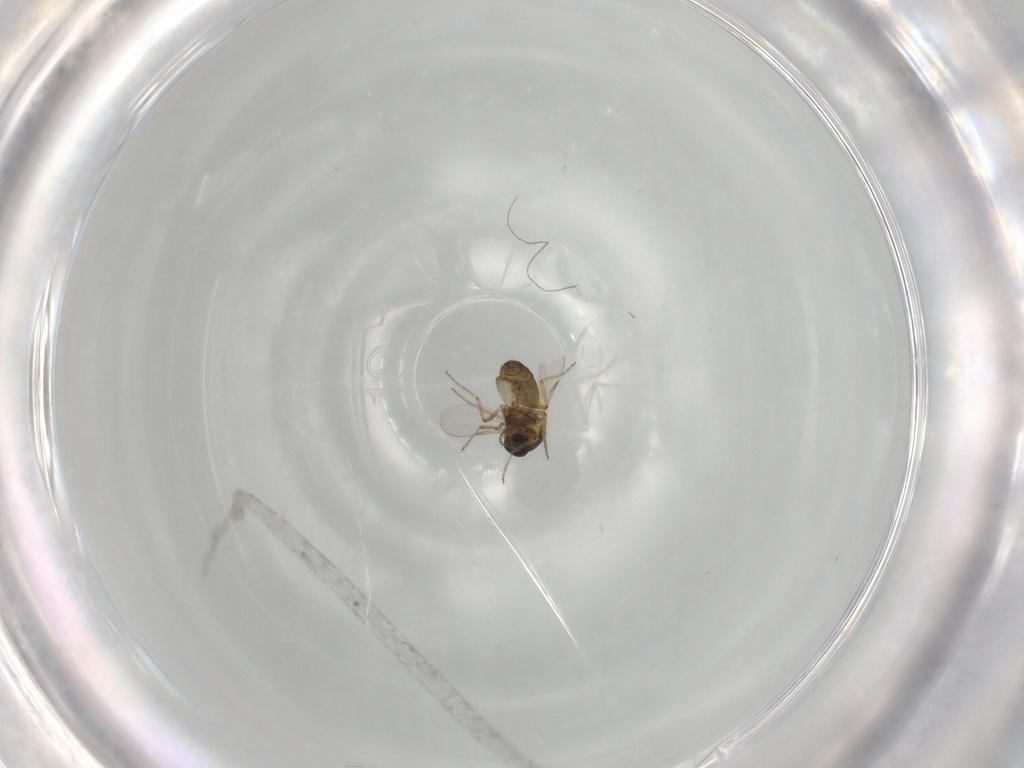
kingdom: Animalia
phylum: Arthropoda
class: Insecta
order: Diptera
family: Ceratopogonidae
